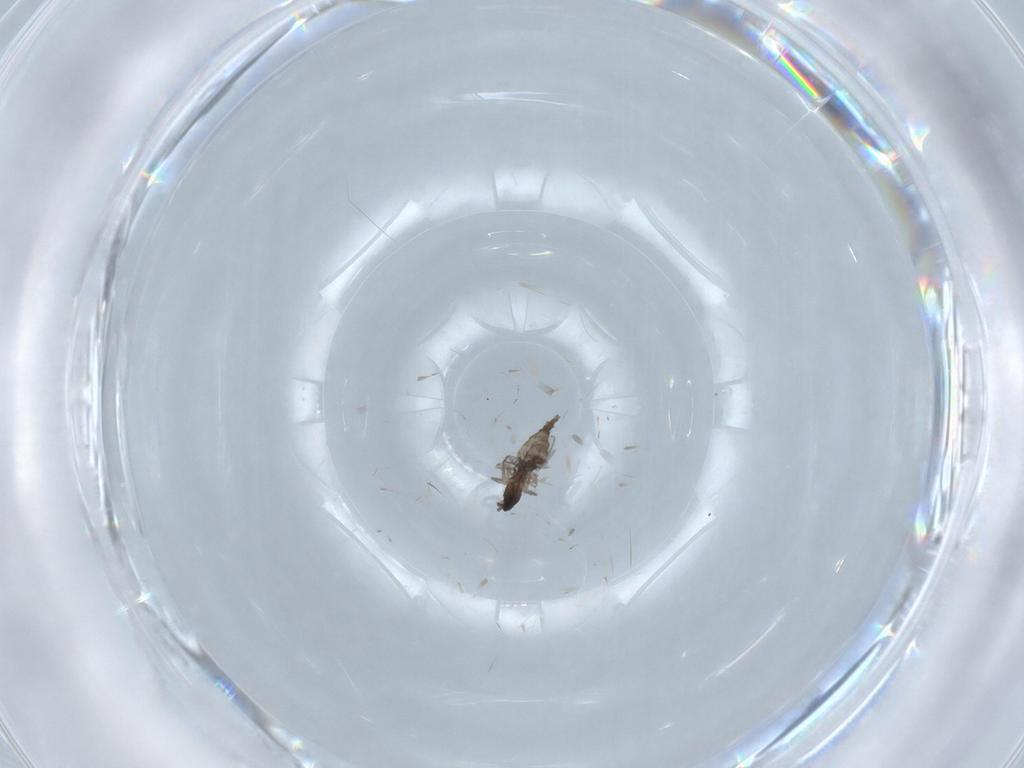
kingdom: Animalia
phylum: Arthropoda
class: Insecta
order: Diptera
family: Cecidomyiidae
